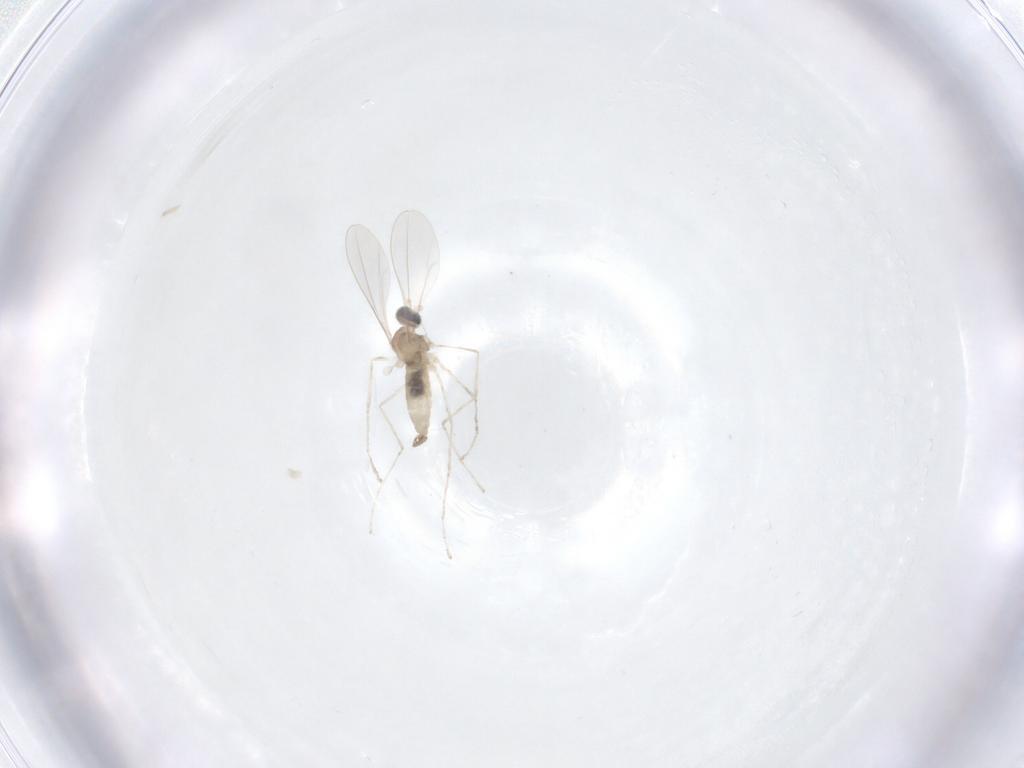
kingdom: Animalia
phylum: Arthropoda
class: Insecta
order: Diptera
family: Cecidomyiidae
